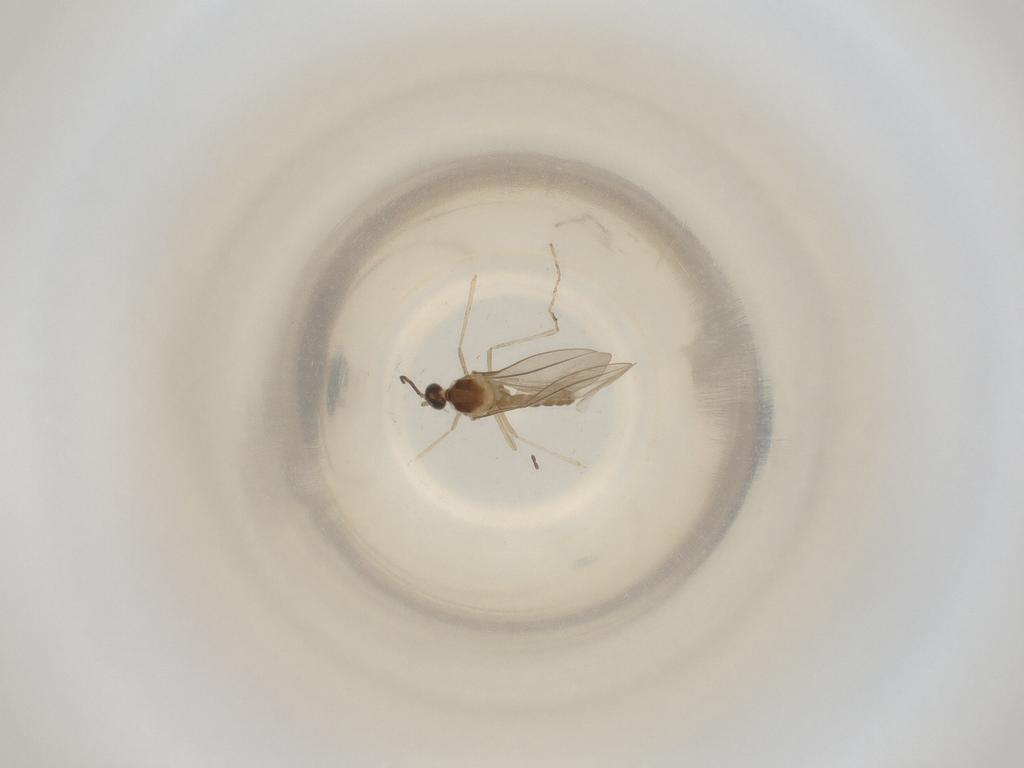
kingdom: Animalia
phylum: Arthropoda
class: Insecta
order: Diptera
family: Cecidomyiidae
